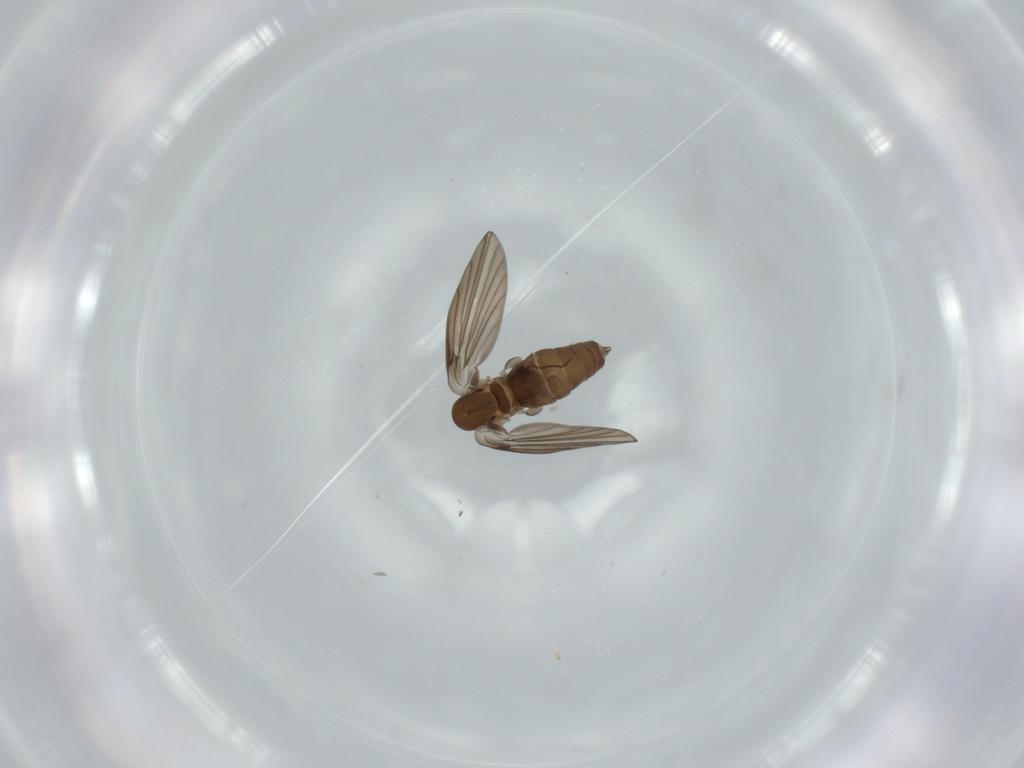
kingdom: Animalia
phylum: Arthropoda
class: Insecta
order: Diptera
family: Psychodidae
